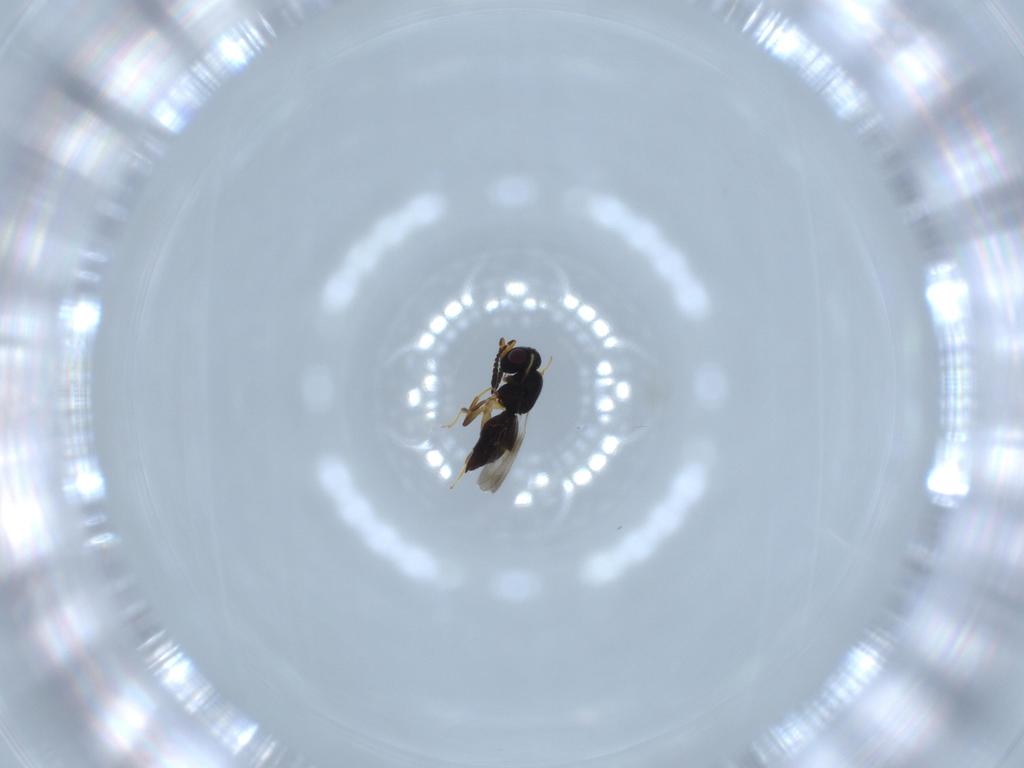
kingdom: Animalia
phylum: Arthropoda
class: Insecta
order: Hymenoptera
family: Ceraphronidae
